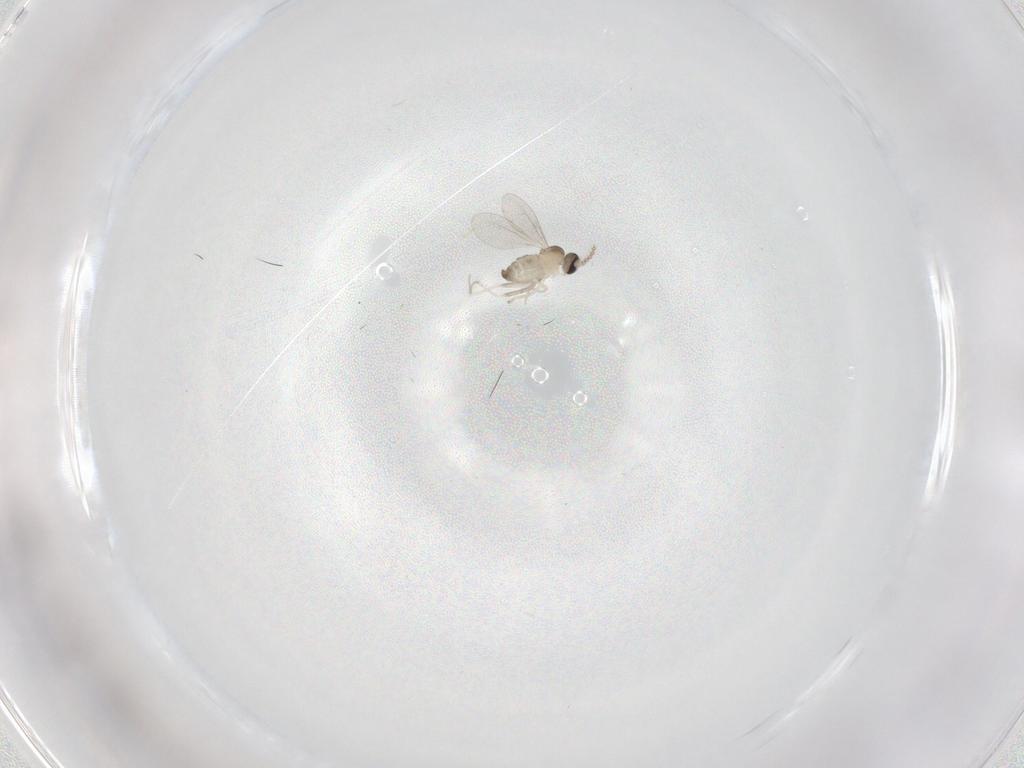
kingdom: Animalia
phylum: Arthropoda
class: Insecta
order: Diptera
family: Cecidomyiidae
